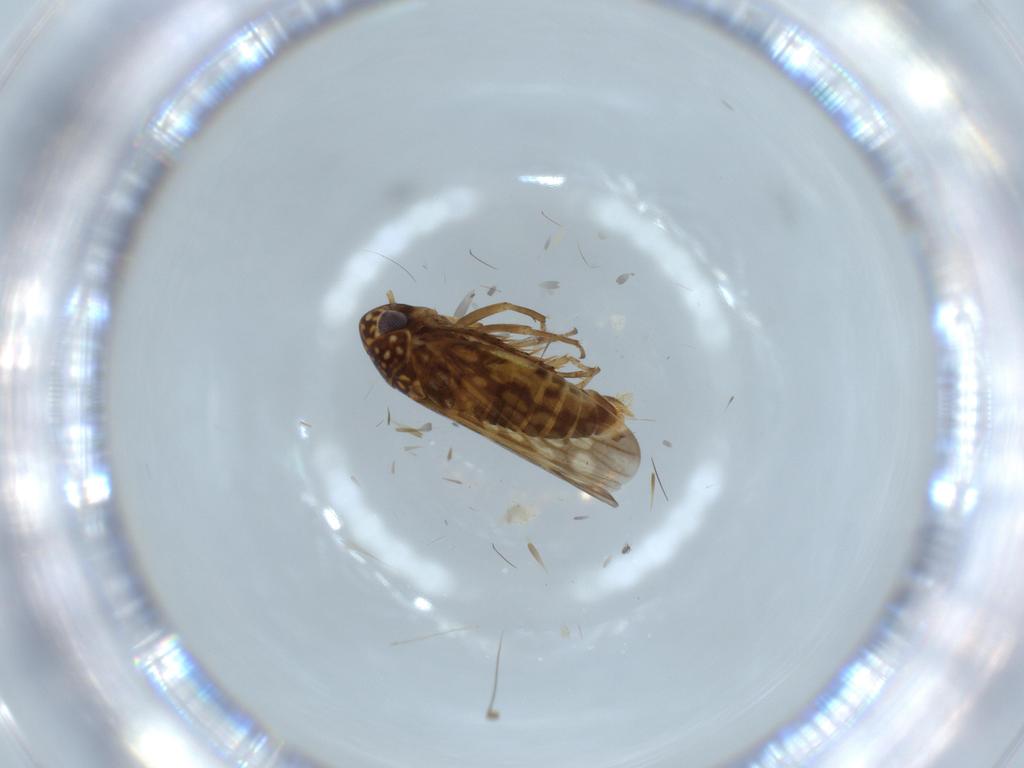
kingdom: Animalia
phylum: Arthropoda
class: Insecta
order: Hemiptera
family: Cicadellidae
